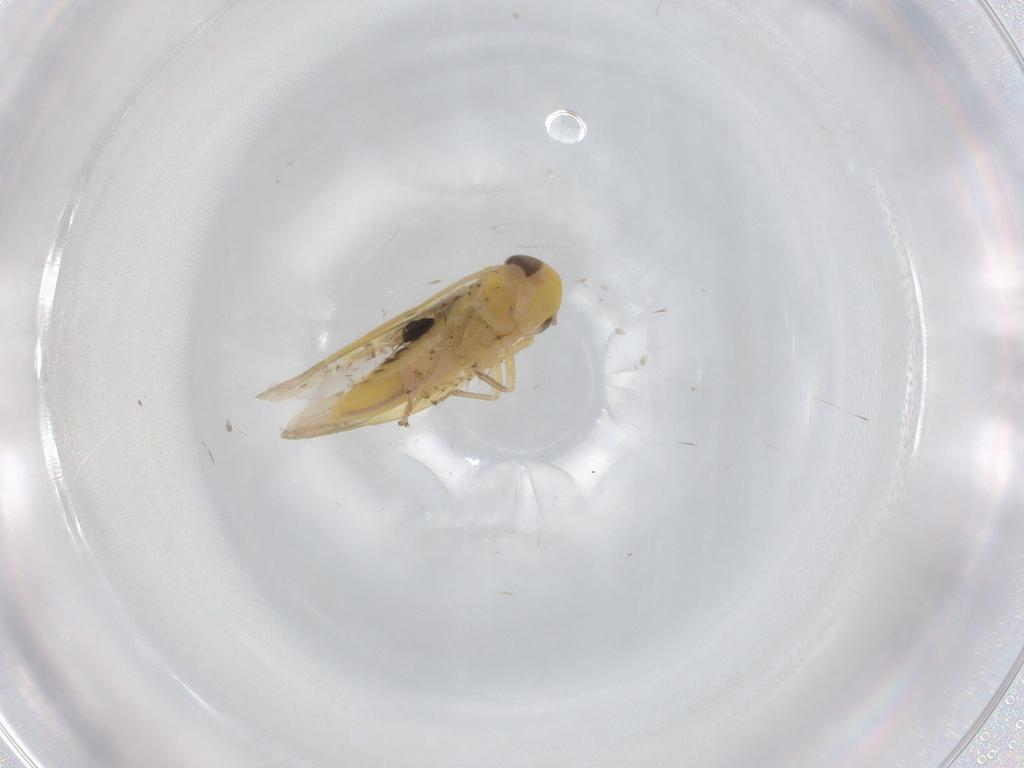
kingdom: Animalia
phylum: Arthropoda
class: Insecta
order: Hemiptera
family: Cicadellidae
